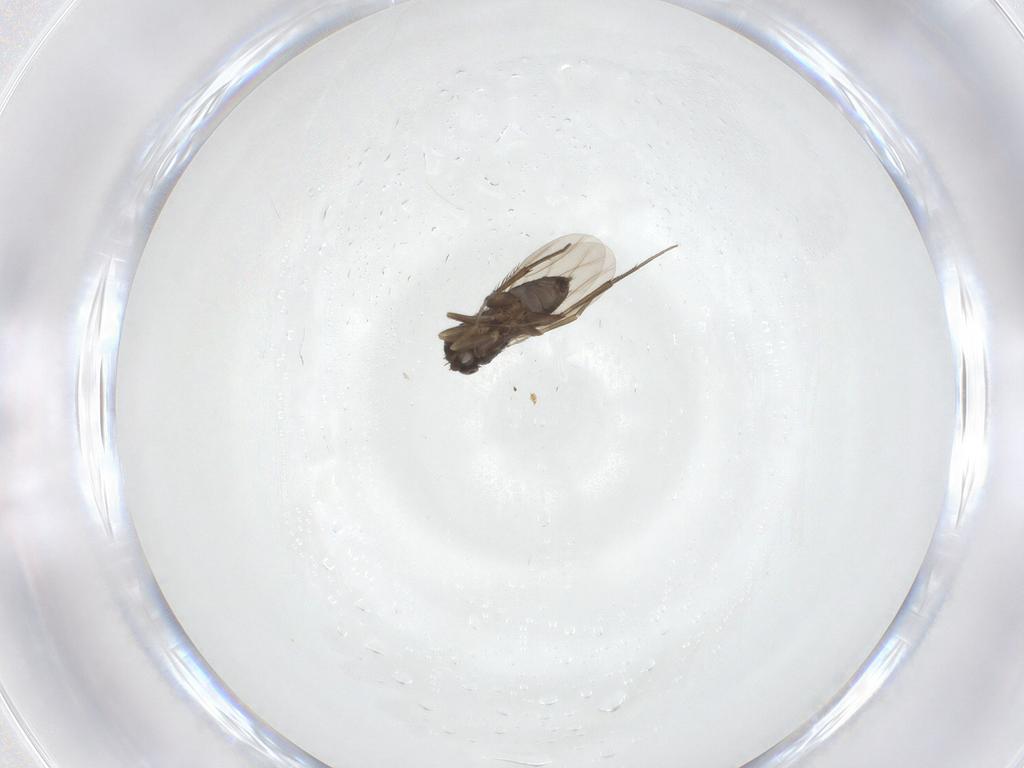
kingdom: Animalia
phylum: Arthropoda
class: Insecta
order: Diptera
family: Phoridae
